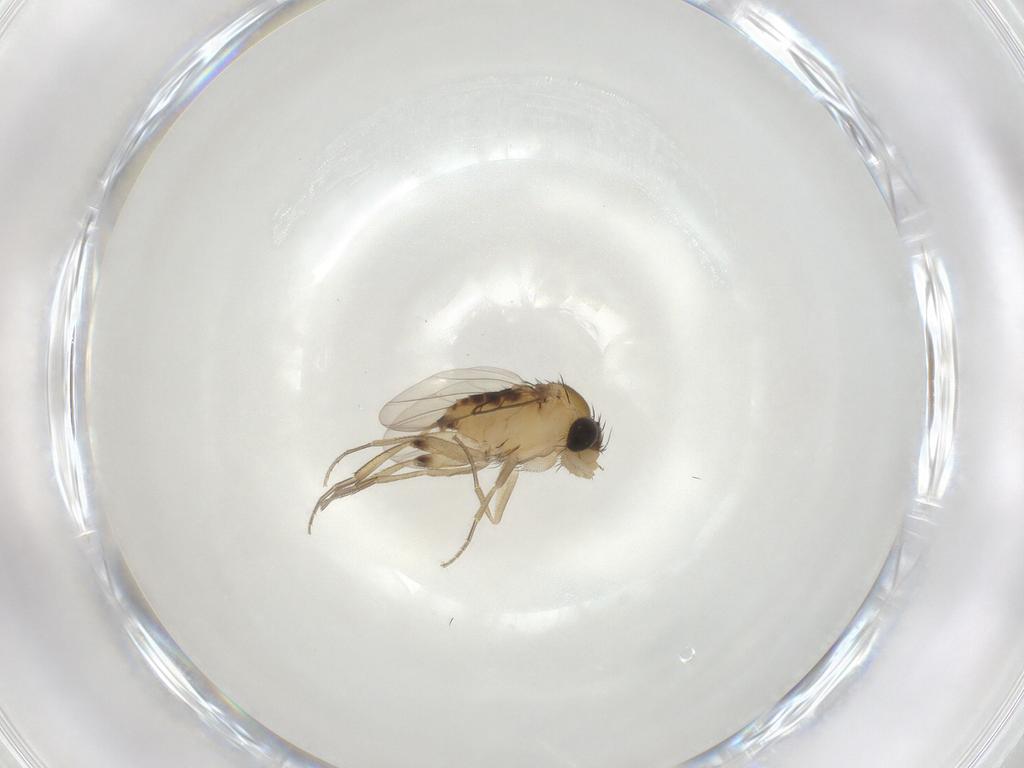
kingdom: Animalia
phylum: Arthropoda
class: Insecta
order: Diptera
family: Phoridae
